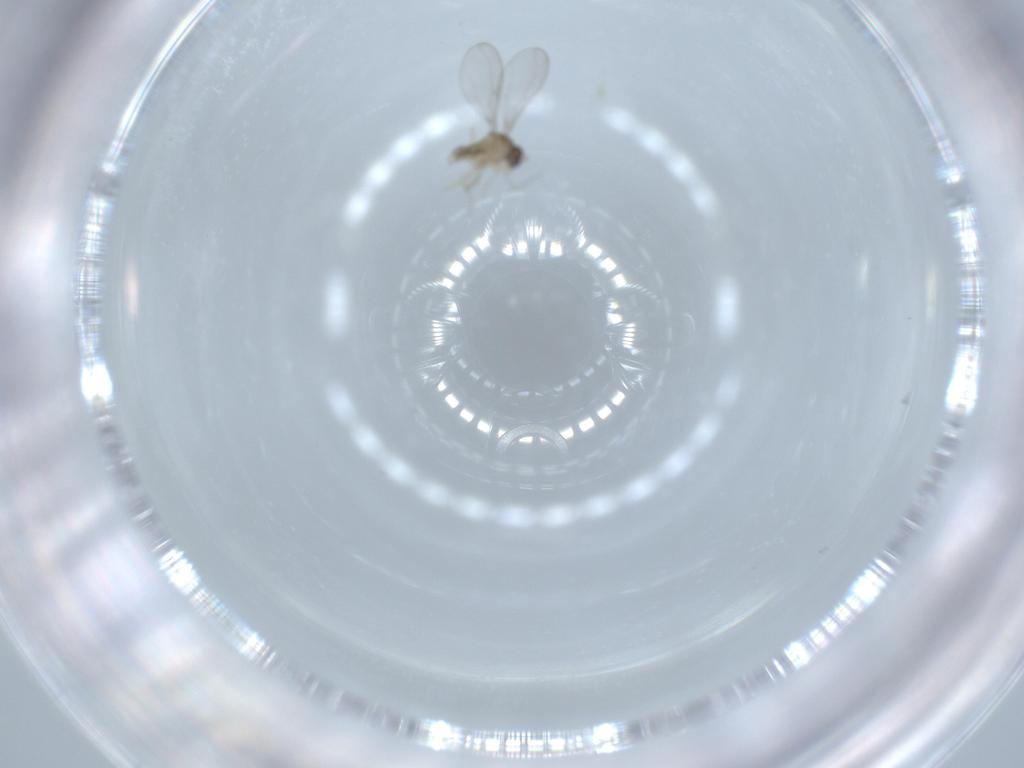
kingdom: Animalia
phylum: Arthropoda
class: Insecta
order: Diptera
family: Cecidomyiidae
